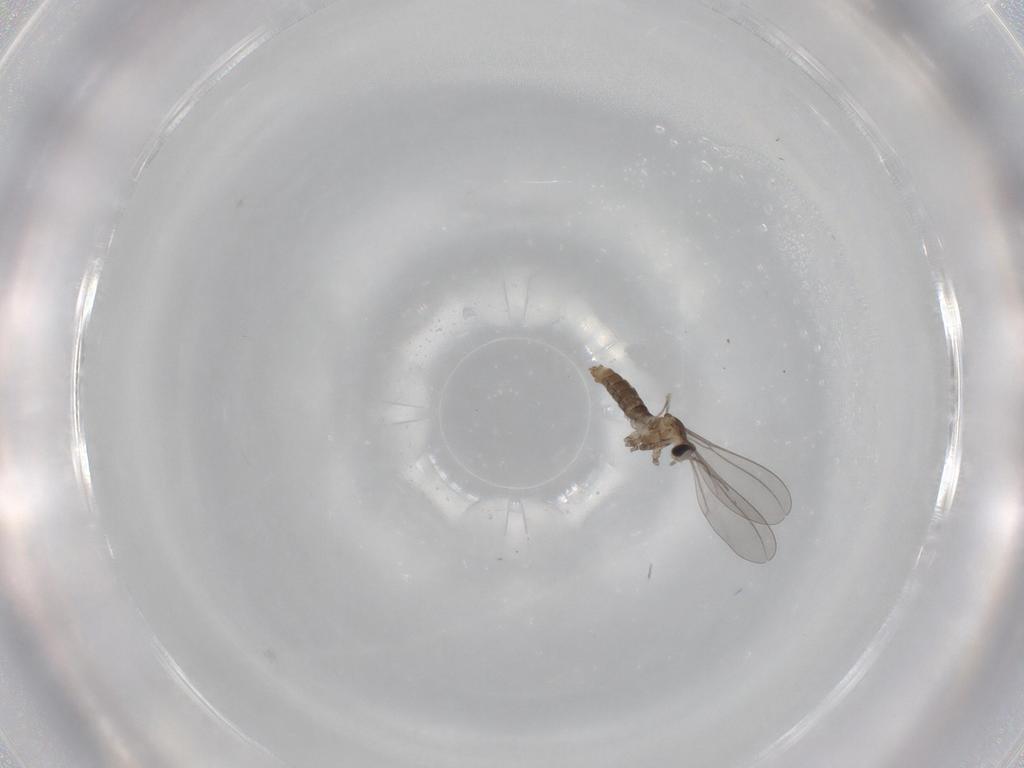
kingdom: Animalia
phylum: Arthropoda
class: Insecta
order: Diptera
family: Cecidomyiidae
